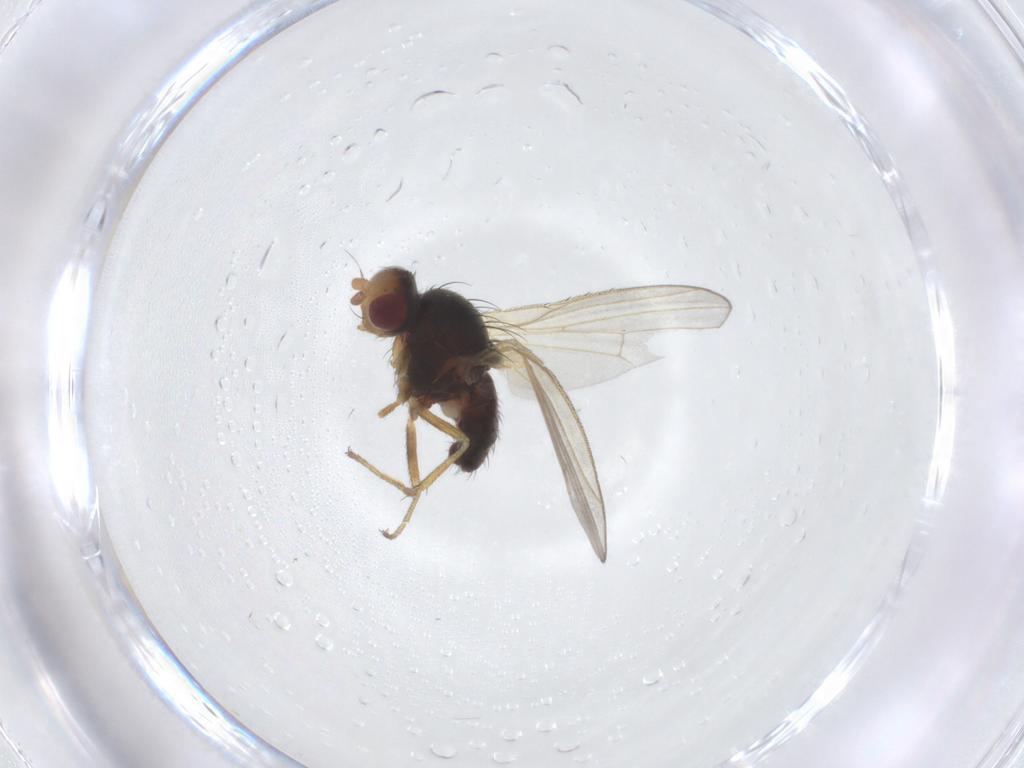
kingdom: Animalia
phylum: Arthropoda
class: Insecta
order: Diptera
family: Heleomyzidae
